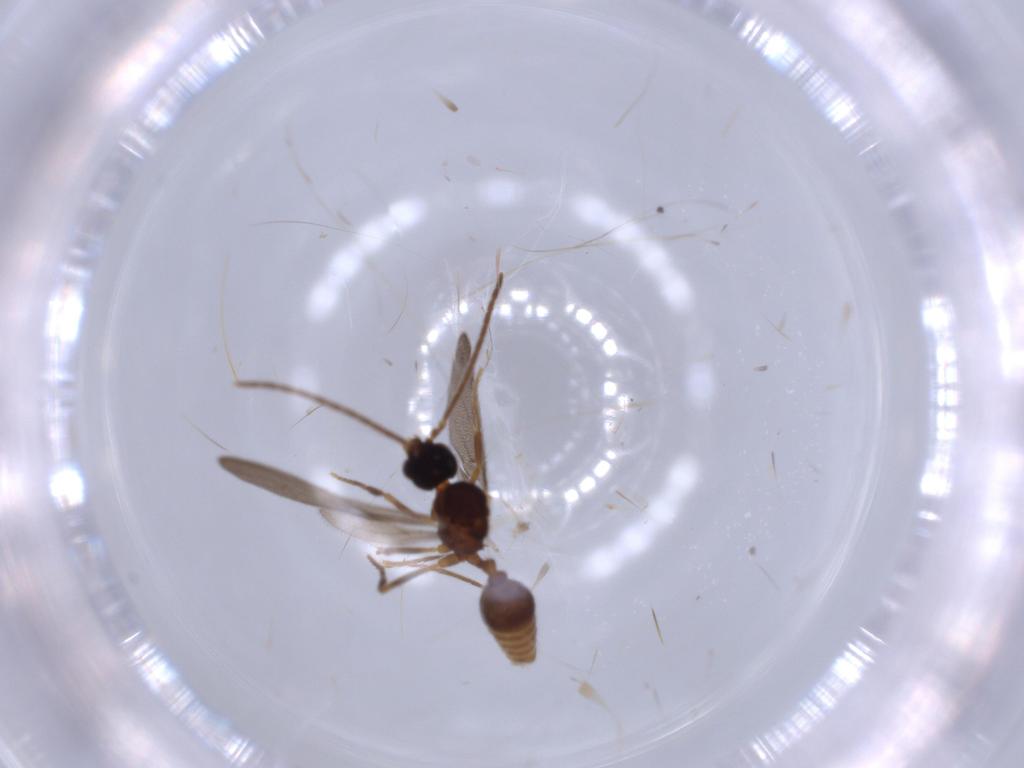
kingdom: Animalia
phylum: Arthropoda
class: Insecta
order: Hymenoptera
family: Formicidae
